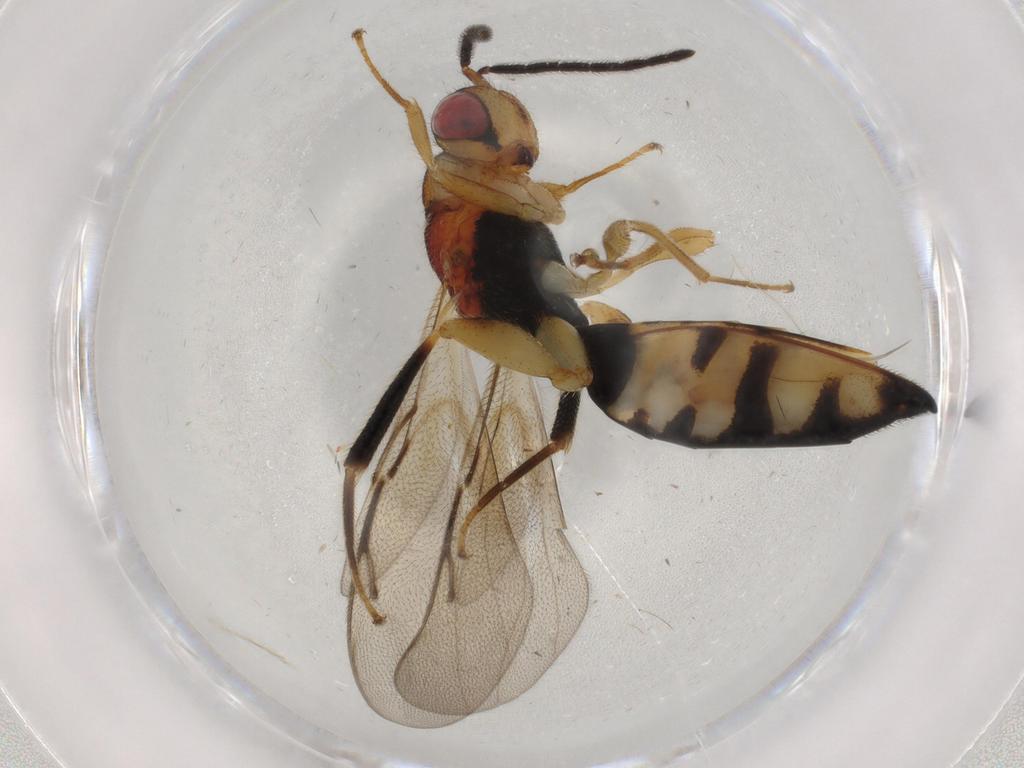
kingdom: Animalia
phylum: Arthropoda
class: Insecta
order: Hymenoptera
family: Eurytomidae
